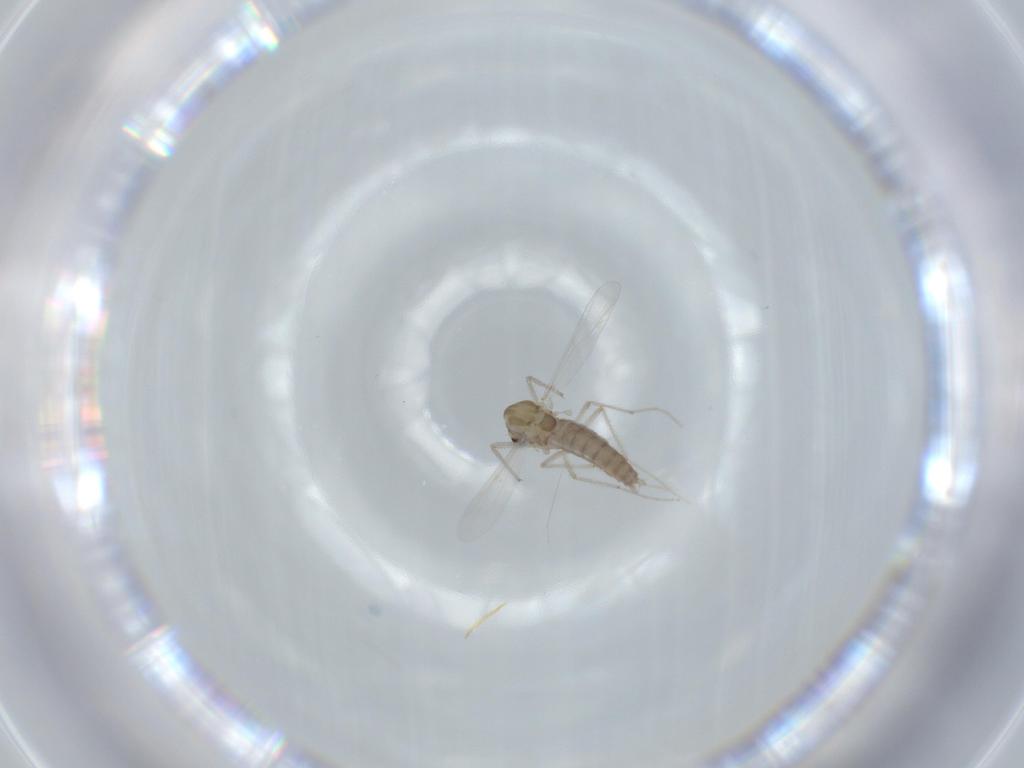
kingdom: Animalia
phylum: Arthropoda
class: Insecta
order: Diptera
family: Chironomidae
